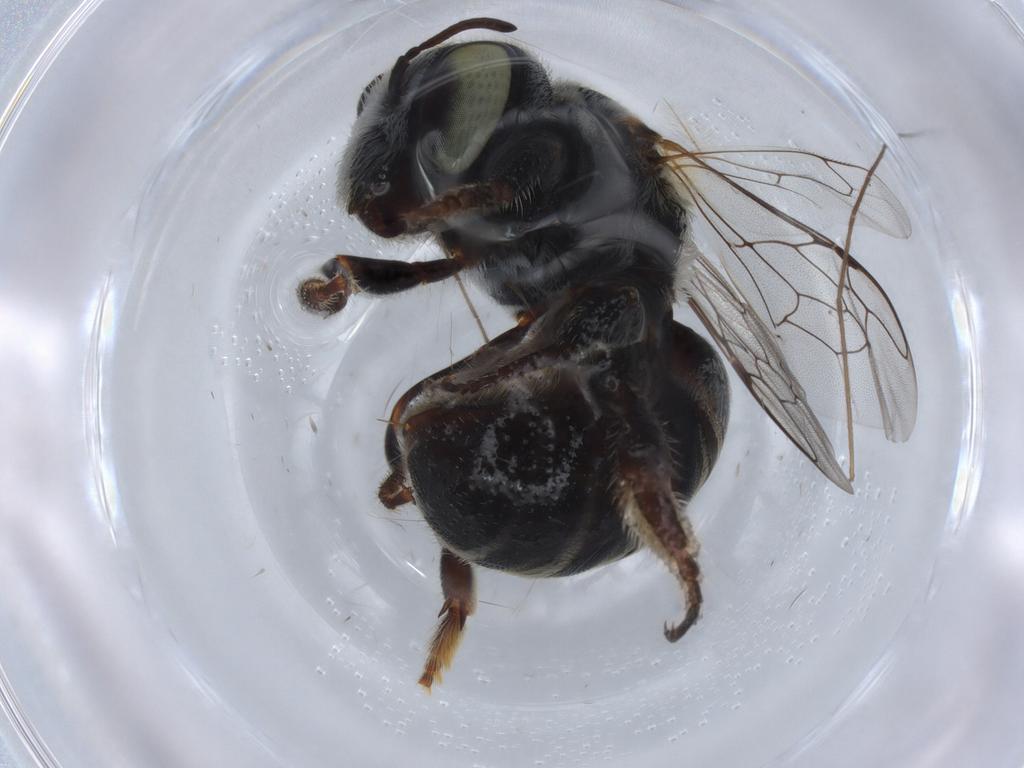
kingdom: Animalia
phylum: Arthropoda
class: Insecta
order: Hymenoptera
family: Megachilidae
